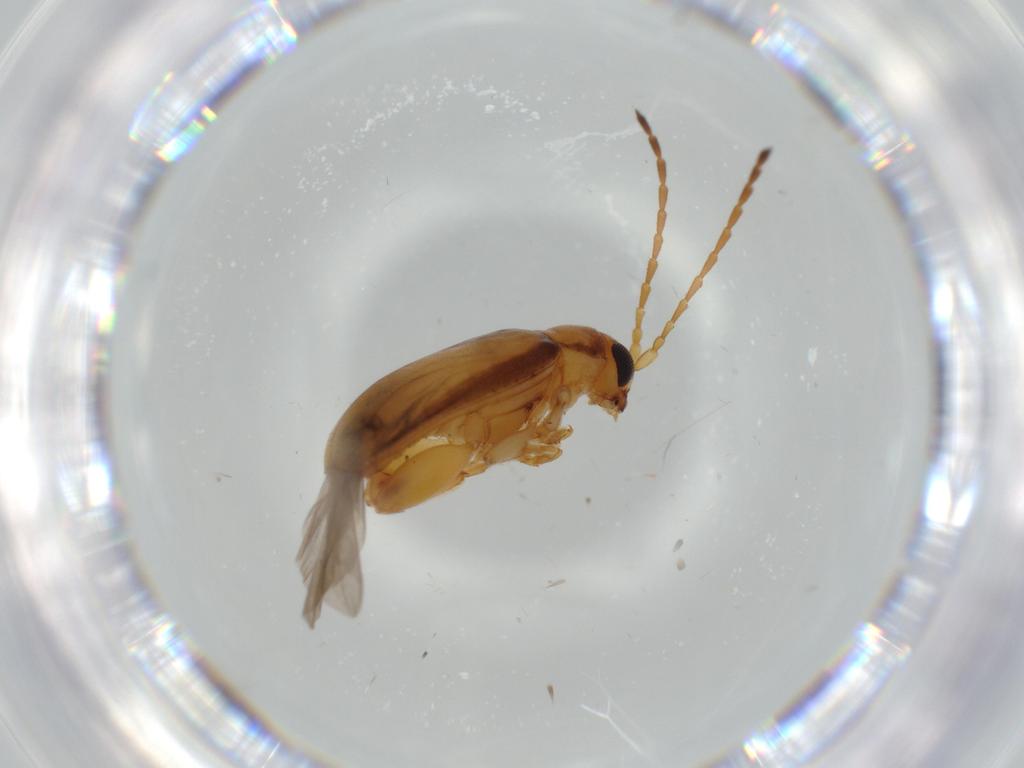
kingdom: Animalia
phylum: Arthropoda
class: Insecta
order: Coleoptera
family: Chrysomelidae
